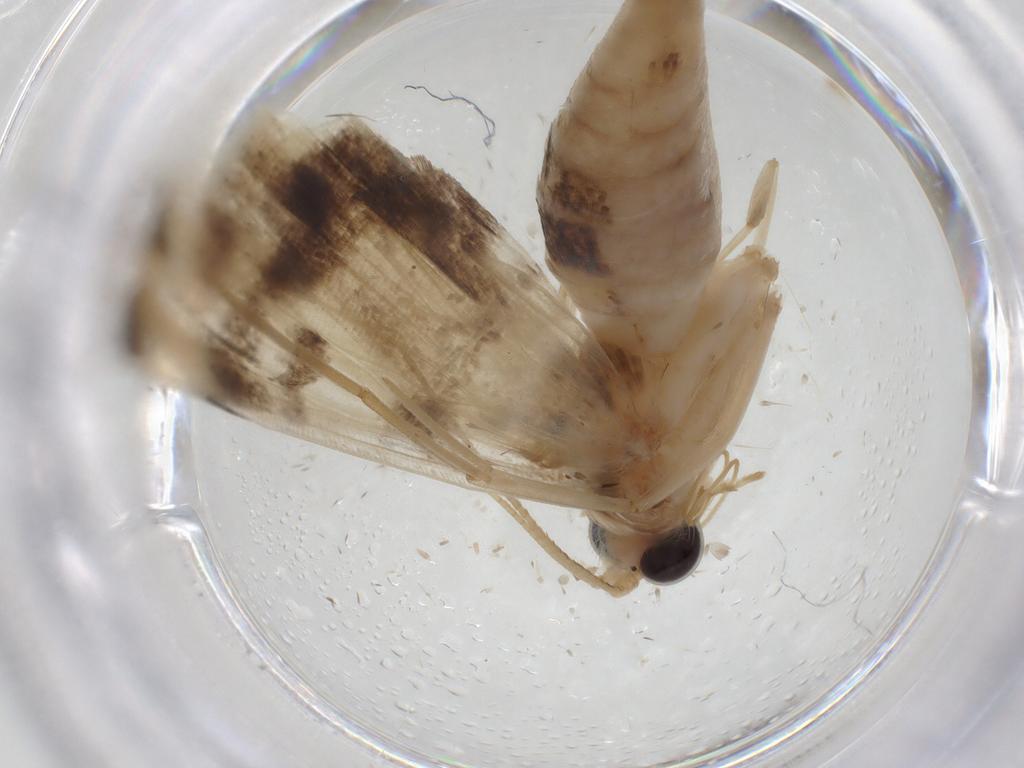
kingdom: Animalia
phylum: Arthropoda
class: Insecta
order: Lepidoptera
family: Crambidae
